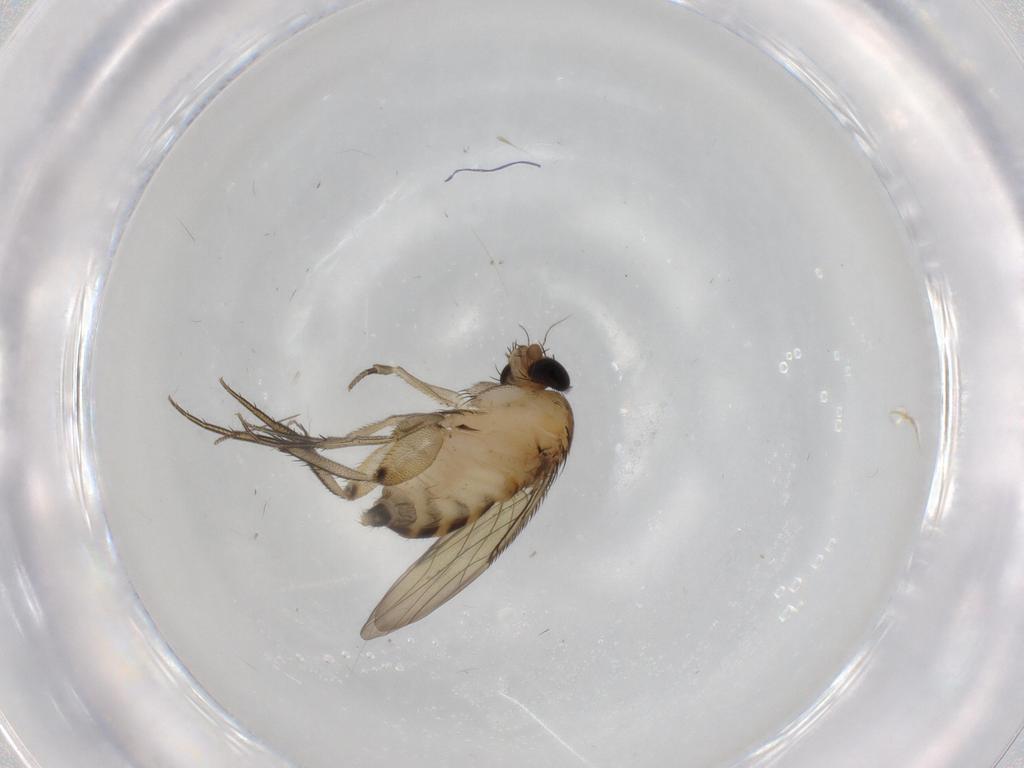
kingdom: Animalia
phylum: Arthropoda
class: Insecta
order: Diptera
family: Phoridae
